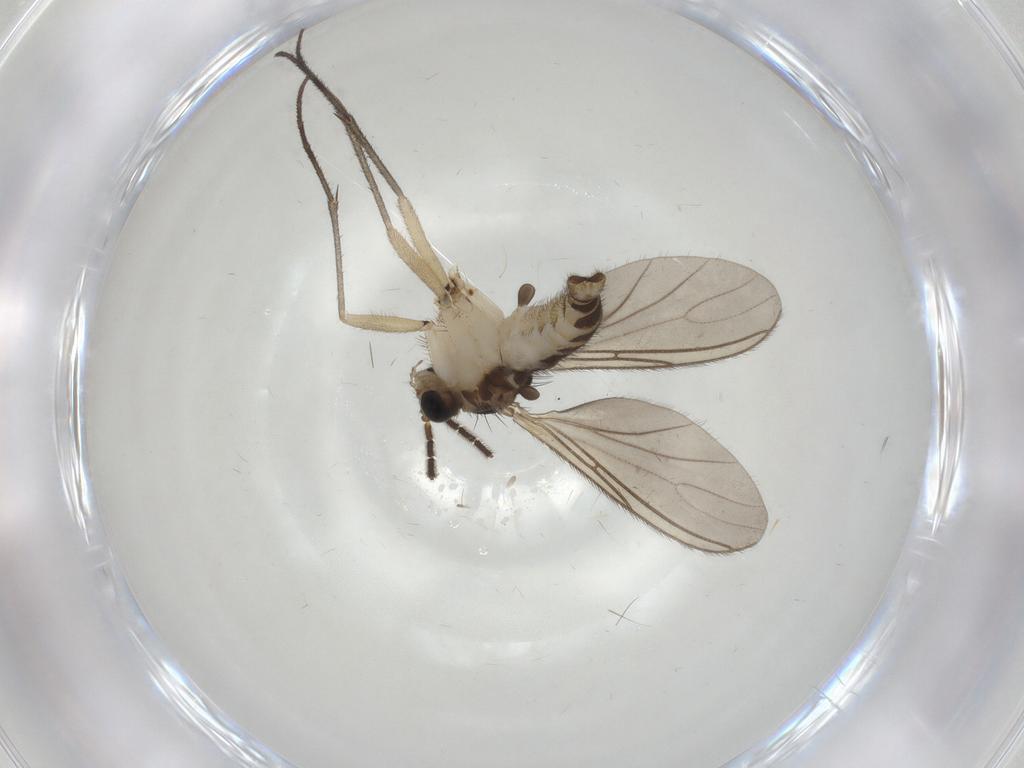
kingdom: Animalia
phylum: Arthropoda
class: Insecta
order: Diptera
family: Sciaridae
